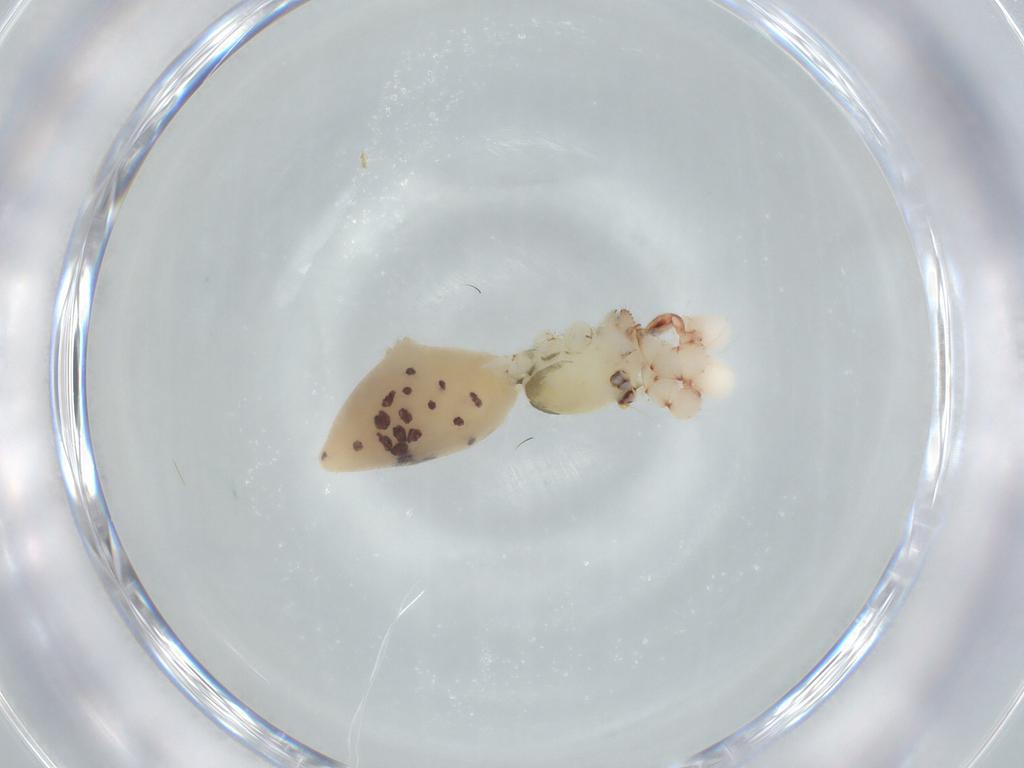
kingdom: Animalia
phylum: Arthropoda
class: Arachnida
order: Araneae
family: Pholcidae
